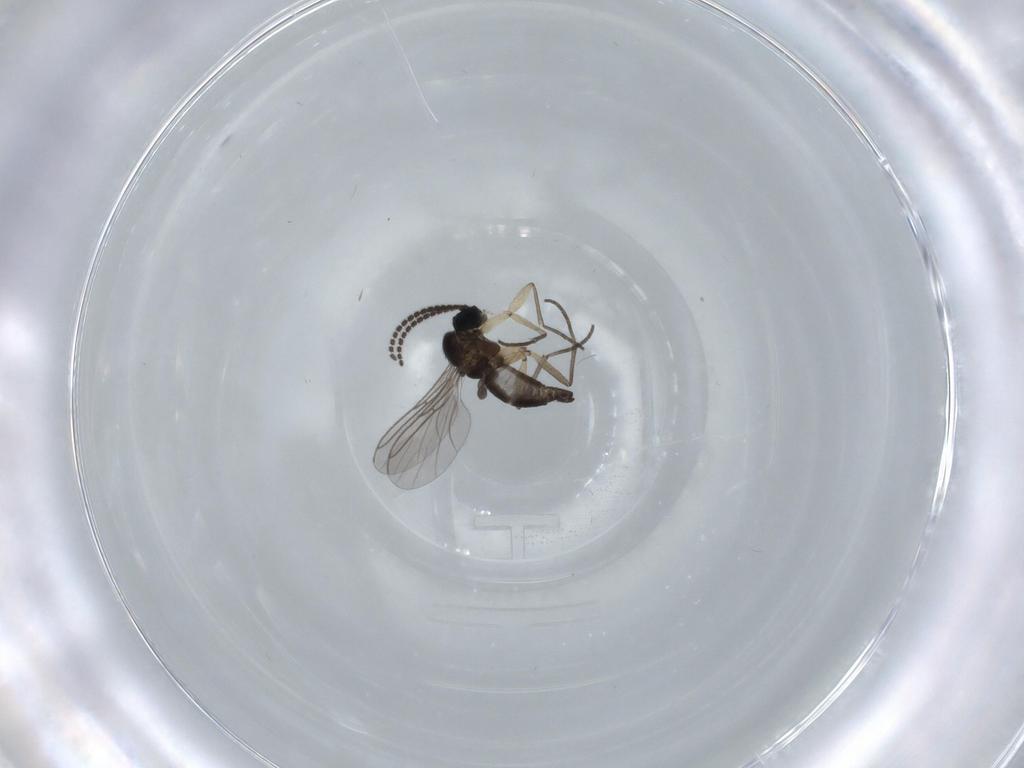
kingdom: Animalia
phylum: Arthropoda
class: Insecta
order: Diptera
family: Sciaridae
